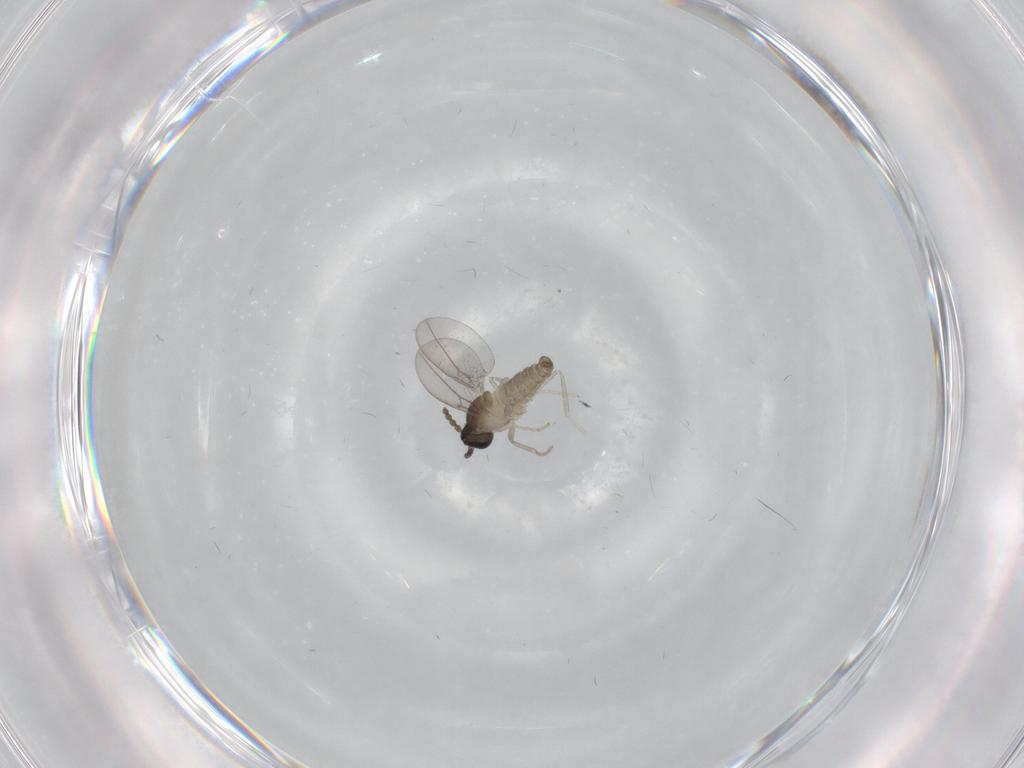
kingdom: Animalia
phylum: Arthropoda
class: Insecta
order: Diptera
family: Cecidomyiidae
